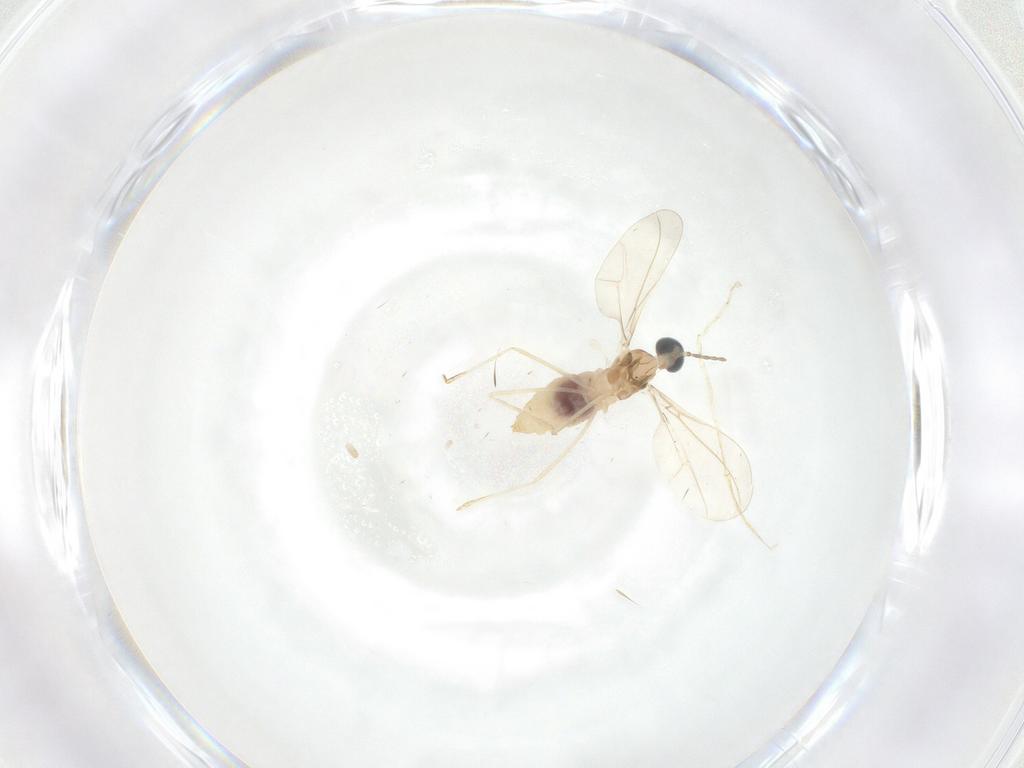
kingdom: Animalia
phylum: Arthropoda
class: Insecta
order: Diptera
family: Cecidomyiidae
